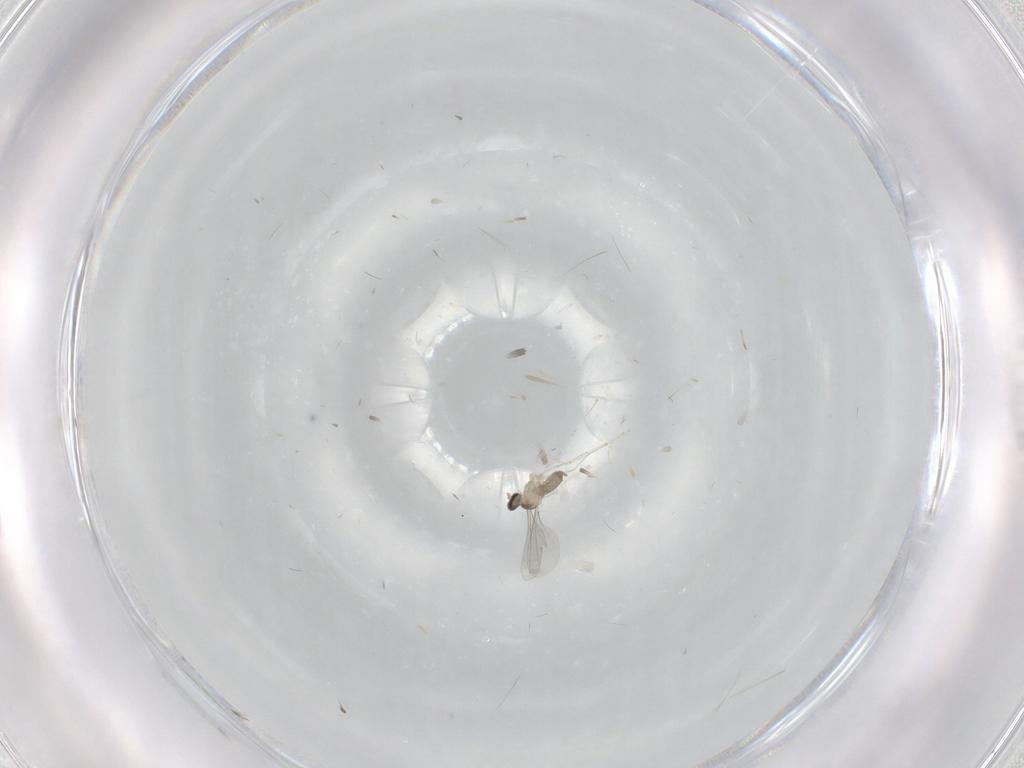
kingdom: Animalia
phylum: Arthropoda
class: Insecta
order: Diptera
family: Cecidomyiidae
